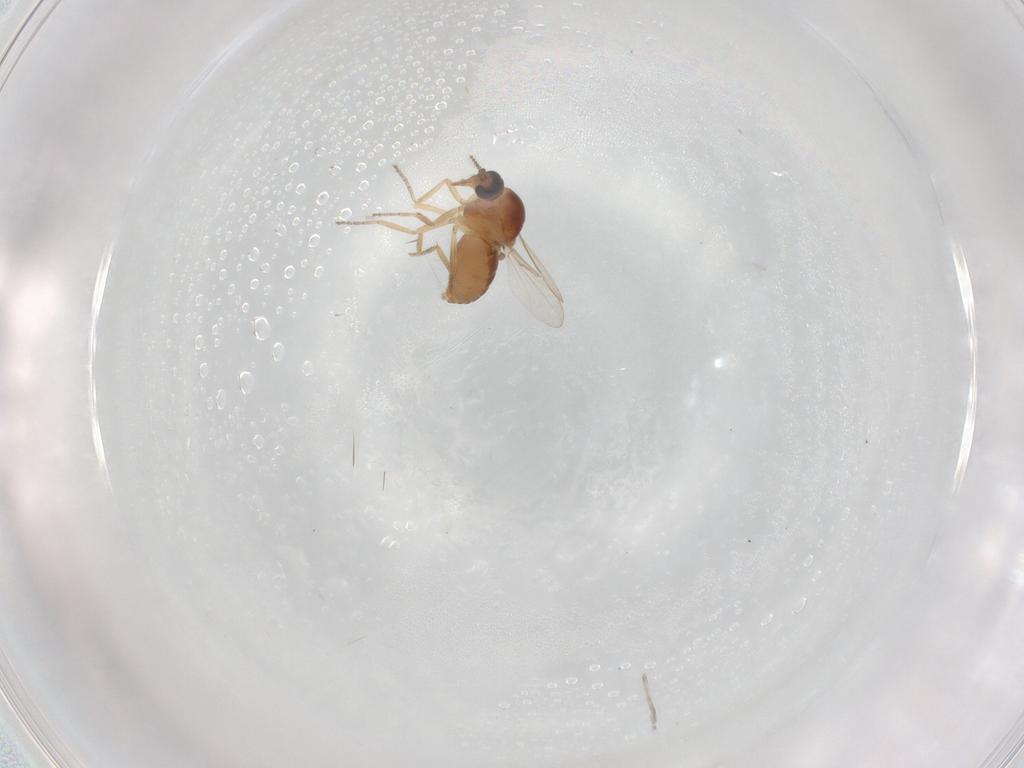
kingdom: Animalia
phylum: Arthropoda
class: Insecta
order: Diptera
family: Ceratopogonidae
